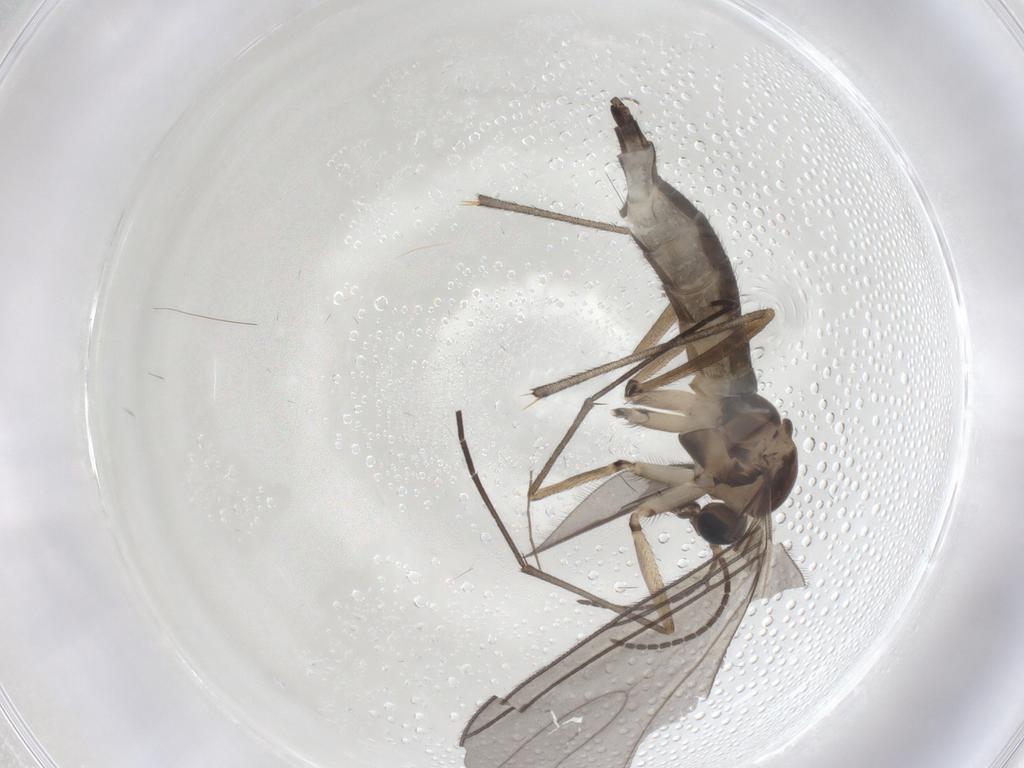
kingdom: Animalia
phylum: Arthropoda
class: Insecta
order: Diptera
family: Sciaridae
